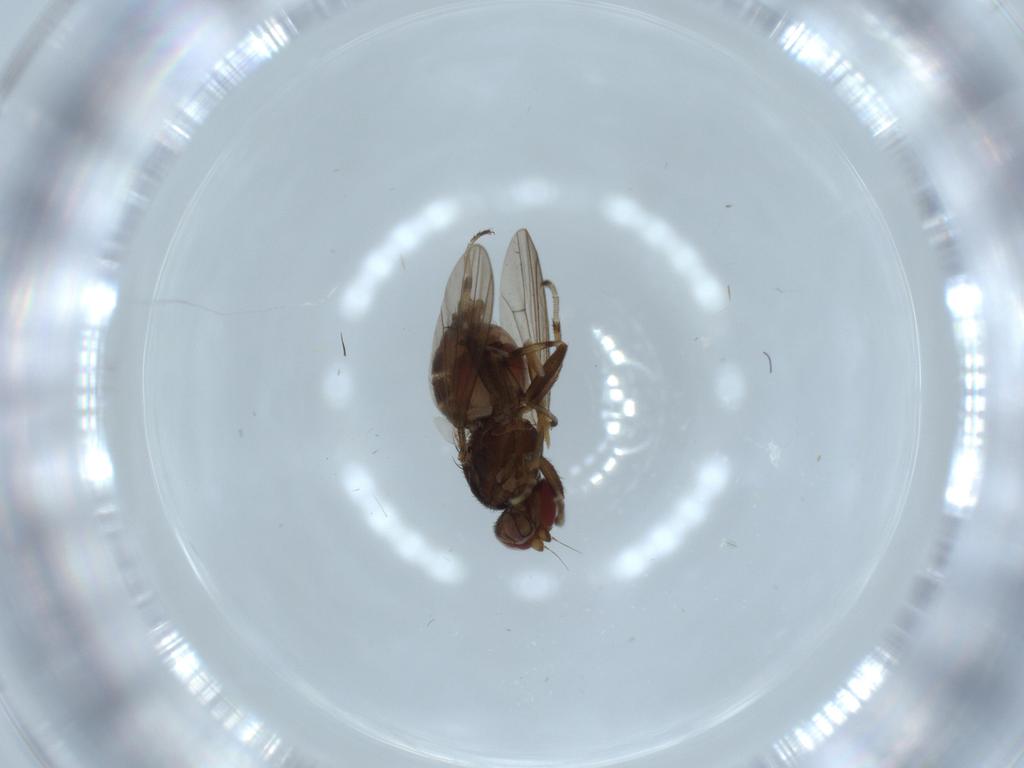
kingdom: Animalia
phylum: Arthropoda
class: Insecta
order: Diptera
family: Heleomyzidae
